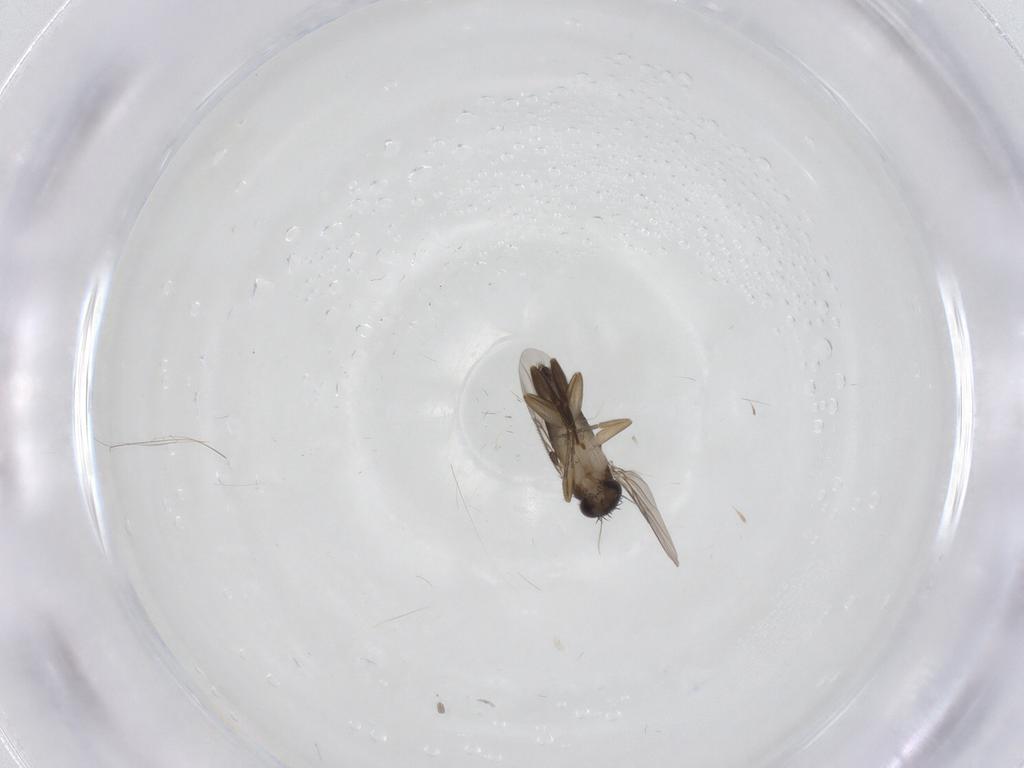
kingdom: Animalia
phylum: Arthropoda
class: Insecta
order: Diptera
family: Phoridae
